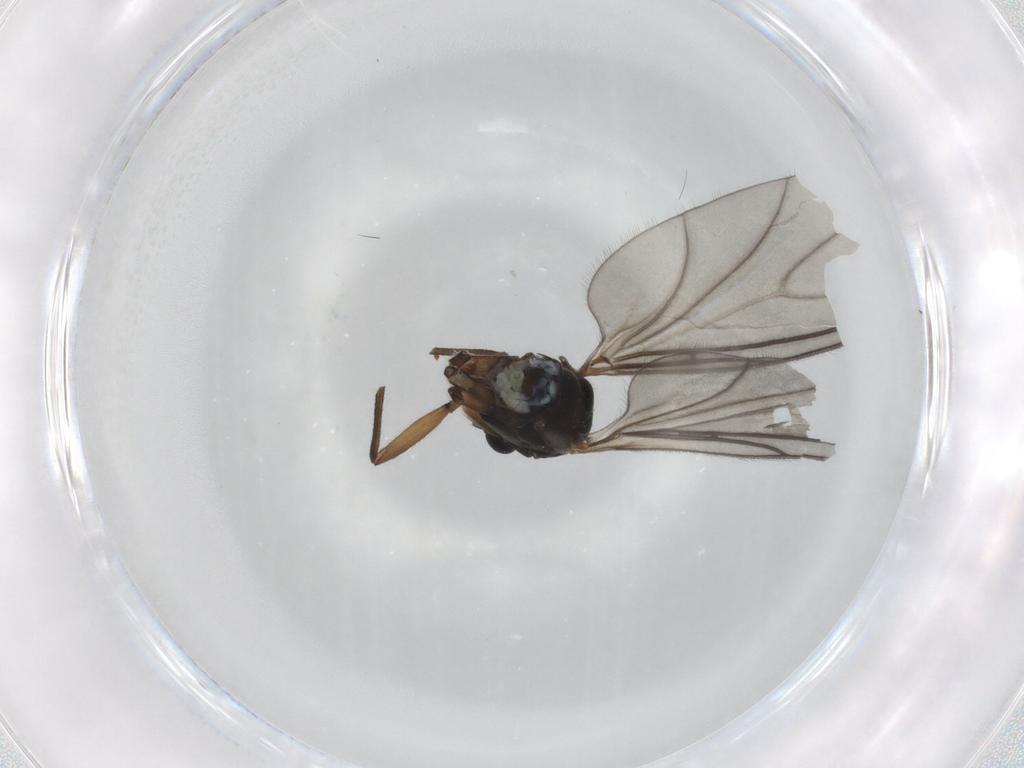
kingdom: Animalia
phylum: Arthropoda
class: Insecta
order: Diptera
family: Sciaridae
